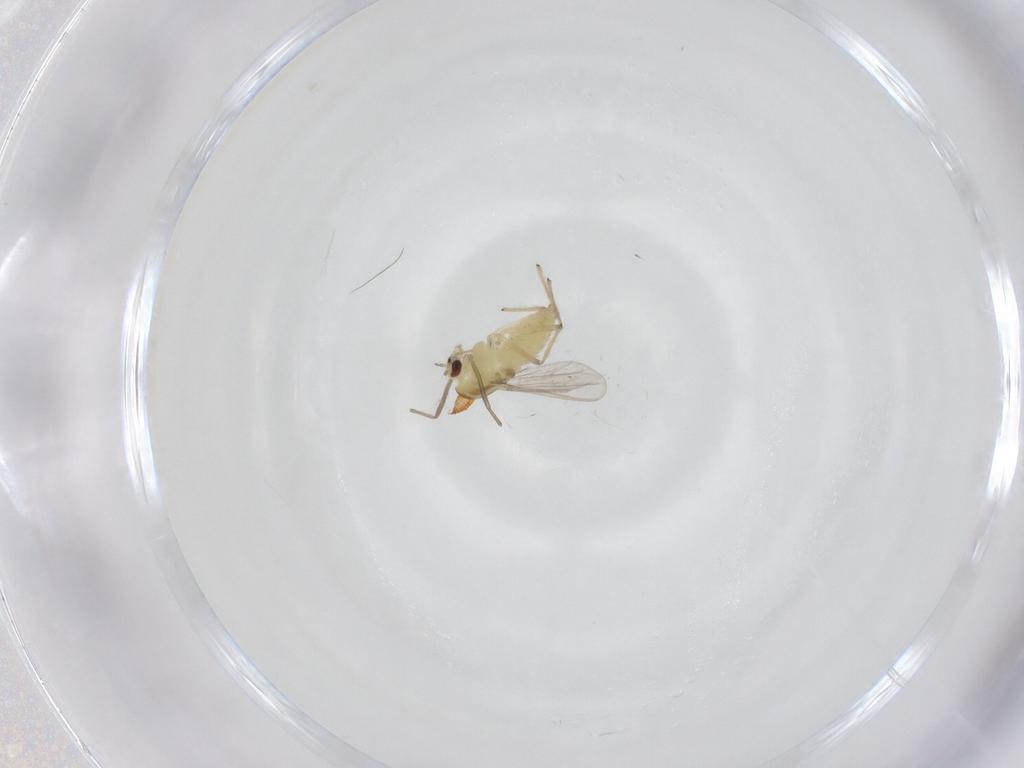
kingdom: Animalia
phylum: Arthropoda
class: Insecta
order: Diptera
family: Chironomidae
